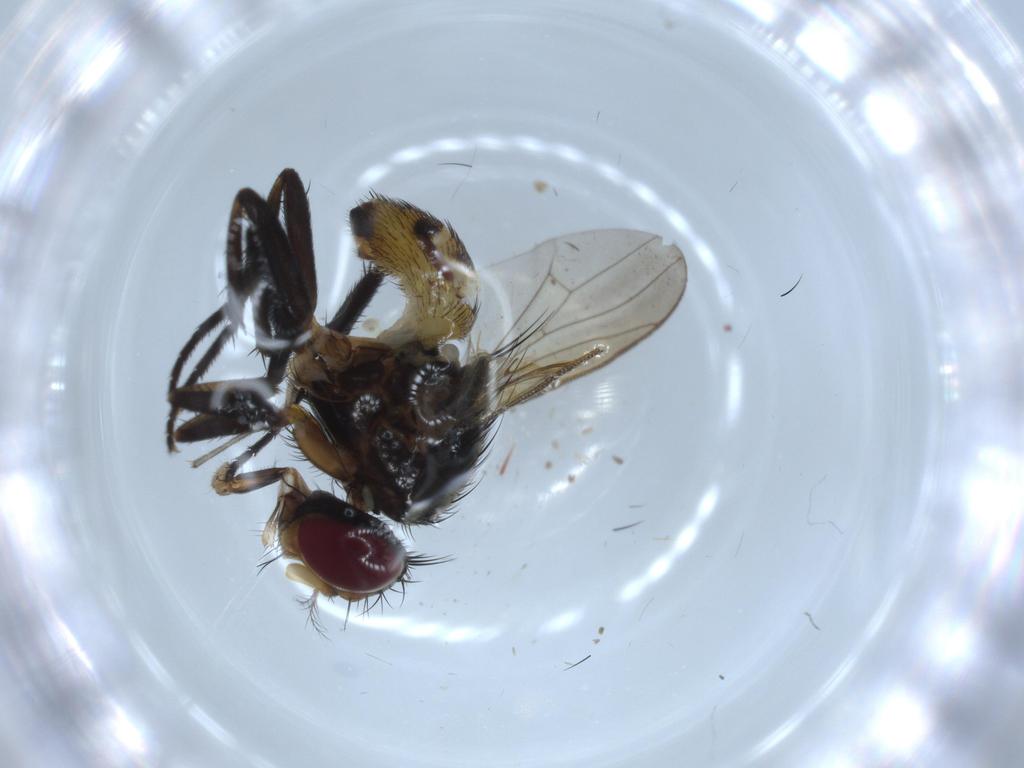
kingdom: Animalia
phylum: Arthropoda
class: Insecta
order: Diptera
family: Anthomyiidae
